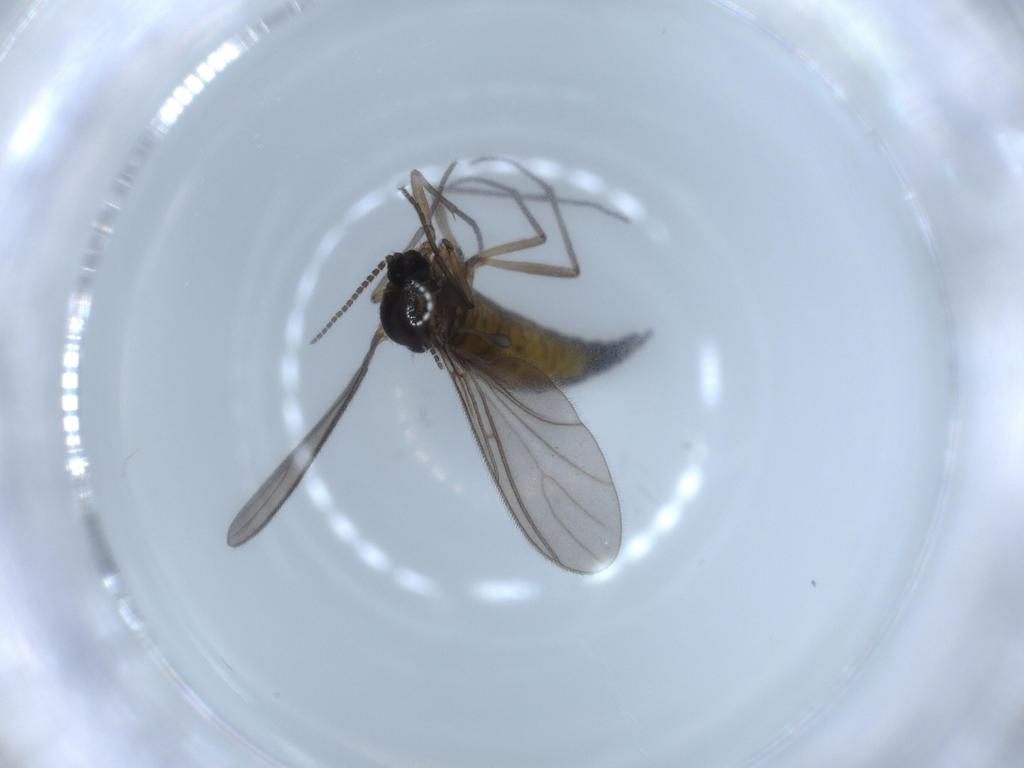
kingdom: Animalia
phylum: Arthropoda
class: Insecta
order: Diptera
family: Sciaridae
